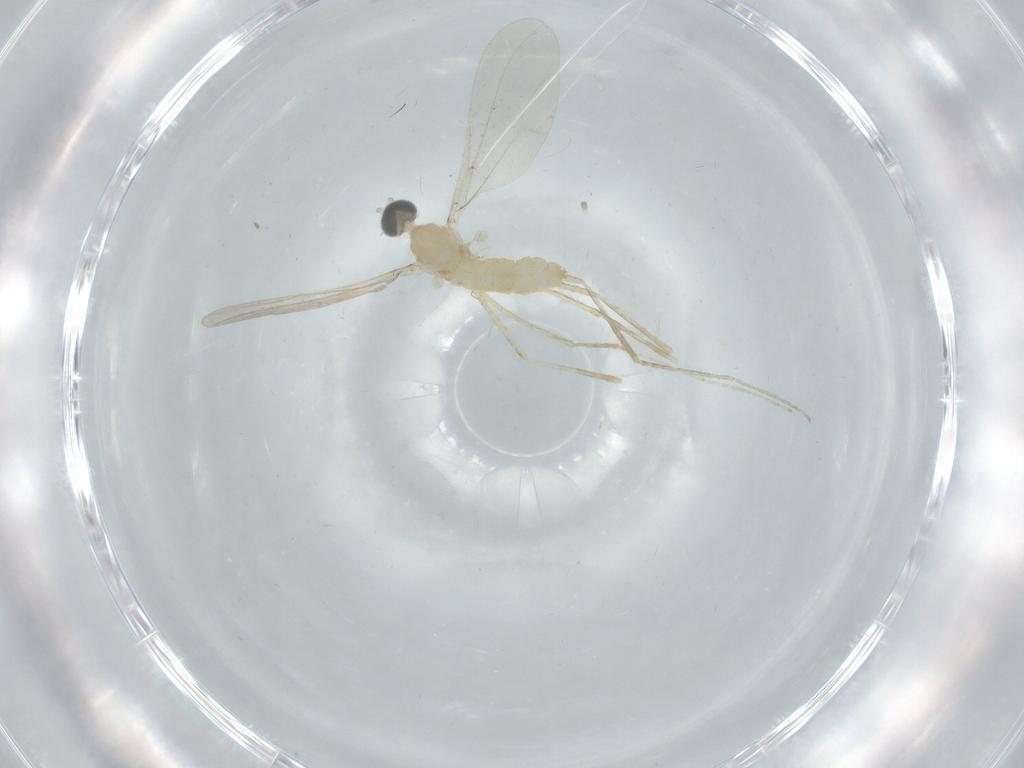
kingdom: Animalia
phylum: Arthropoda
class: Insecta
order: Diptera
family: Cecidomyiidae
